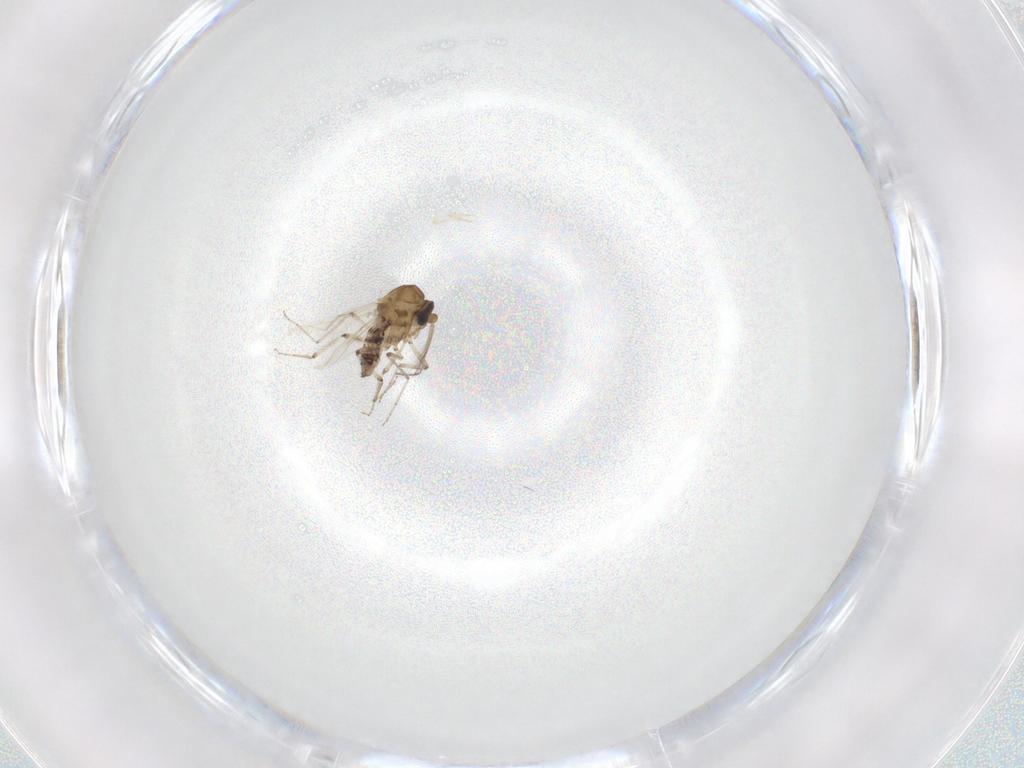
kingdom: Animalia
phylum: Arthropoda
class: Insecta
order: Diptera
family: Ceratopogonidae
